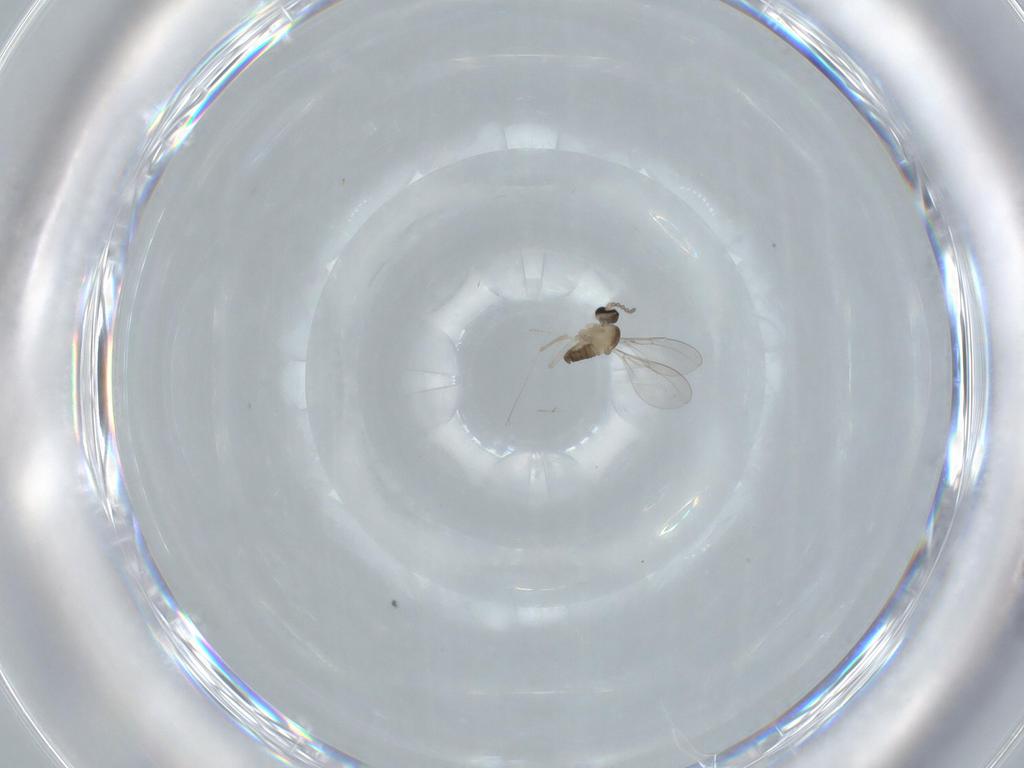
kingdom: Animalia
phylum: Arthropoda
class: Insecta
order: Diptera
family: Cecidomyiidae
